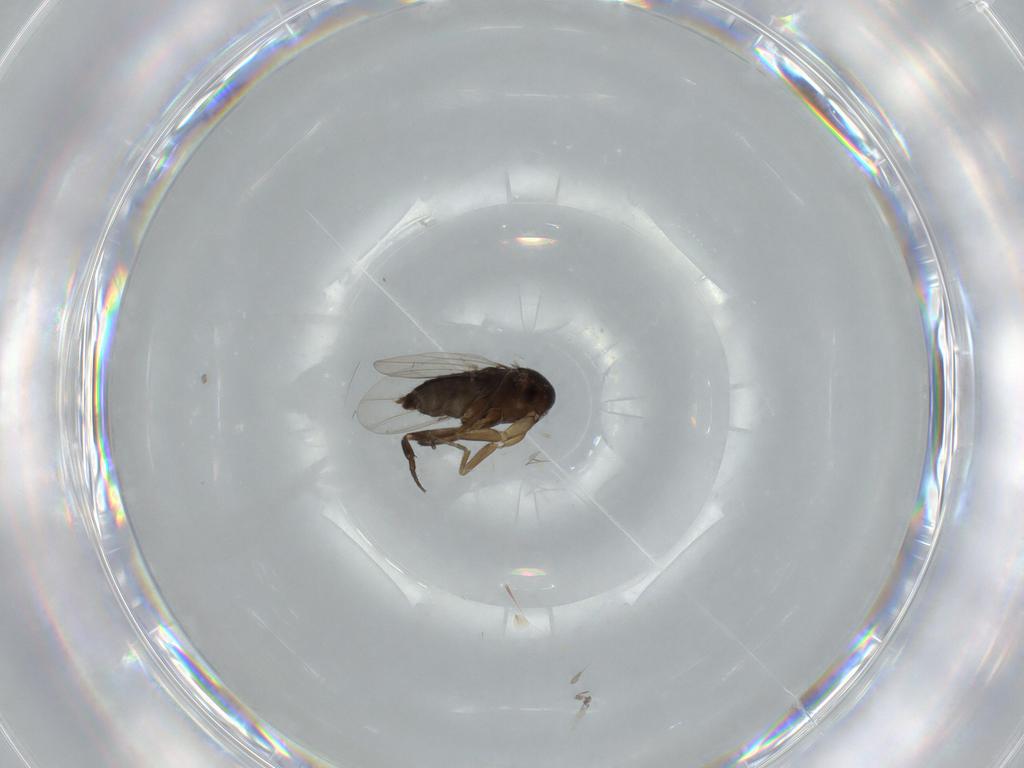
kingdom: Animalia
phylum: Arthropoda
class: Insecta
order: Diptera
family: Phoridae
